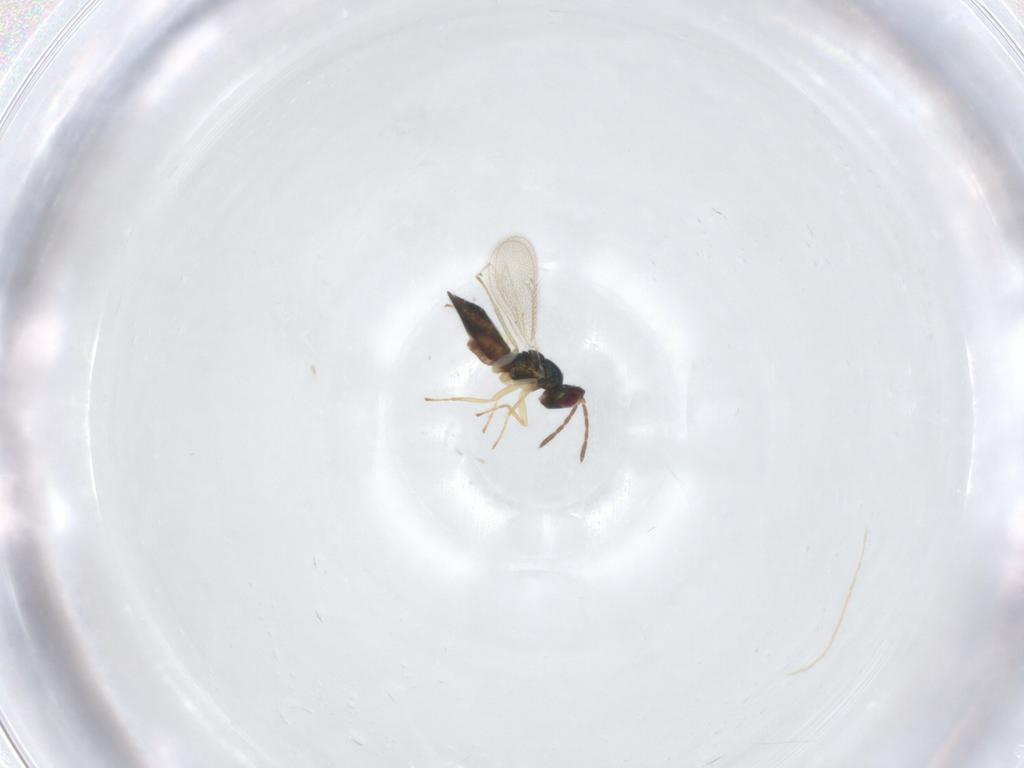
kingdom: Animalia
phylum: Arthropoda
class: Insecta
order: Hymenoptera
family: Eulophidae
